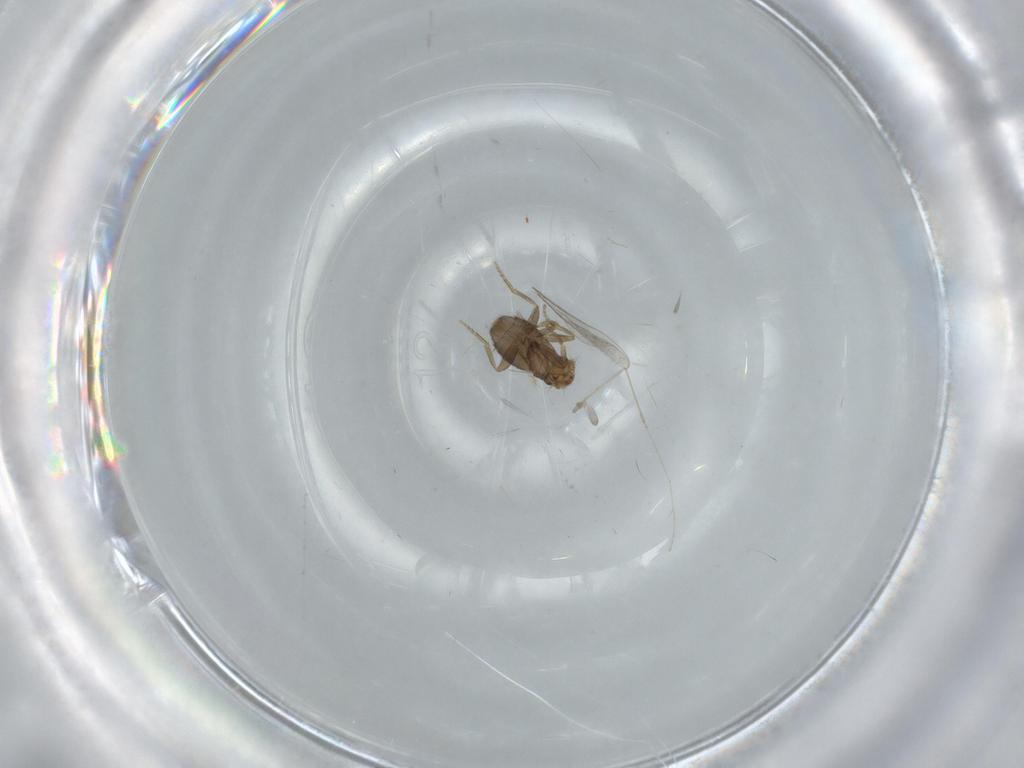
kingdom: Animalia
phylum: Arthropoda
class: Insecta
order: Diptera
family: Phoridae
